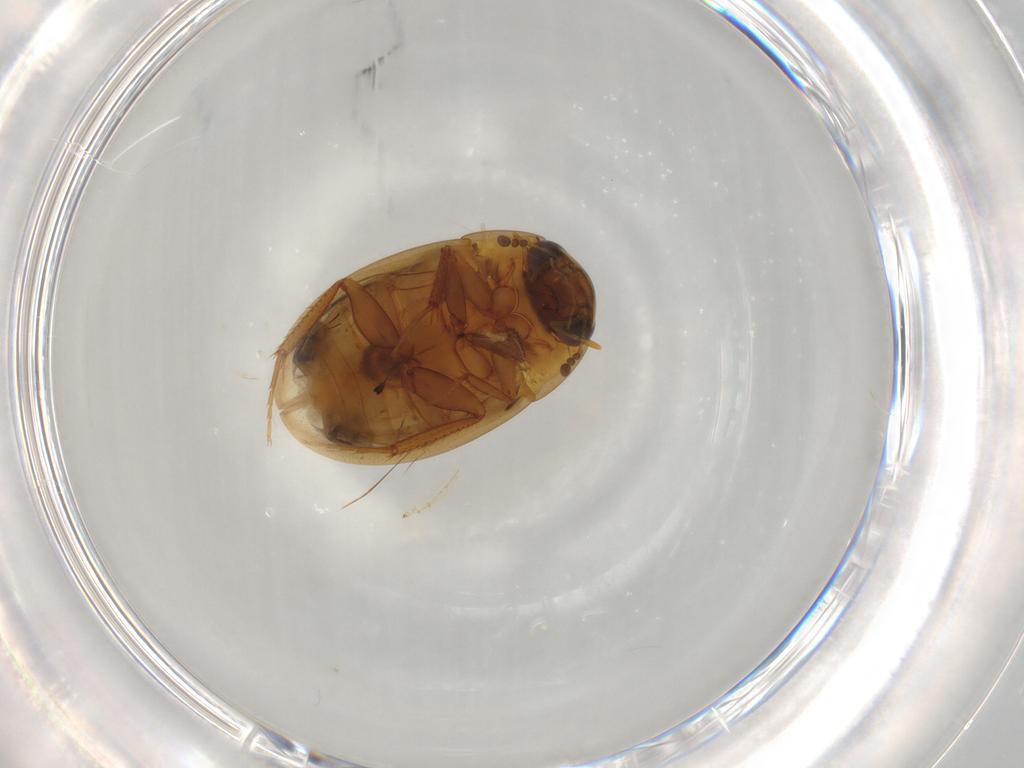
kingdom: Animalia
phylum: Arthropoda
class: Insecta
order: Coleoptera
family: Hydrophilidae
